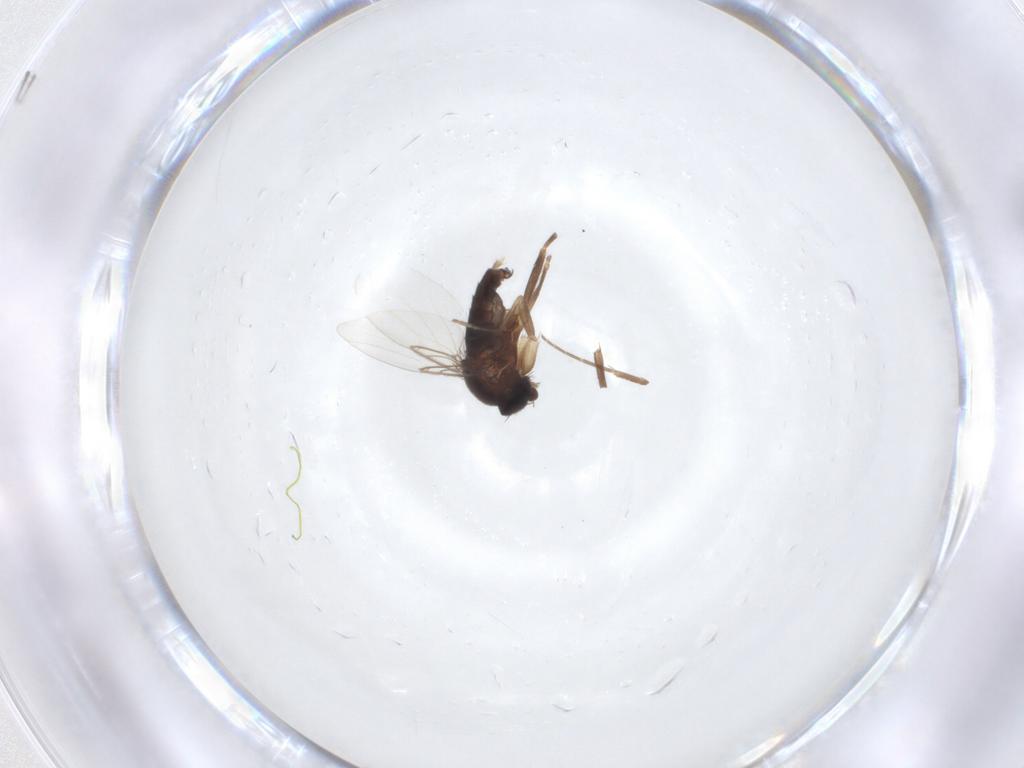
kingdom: Animalia
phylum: Arthropoda
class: Insecta
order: Diptera
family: Phoridae
